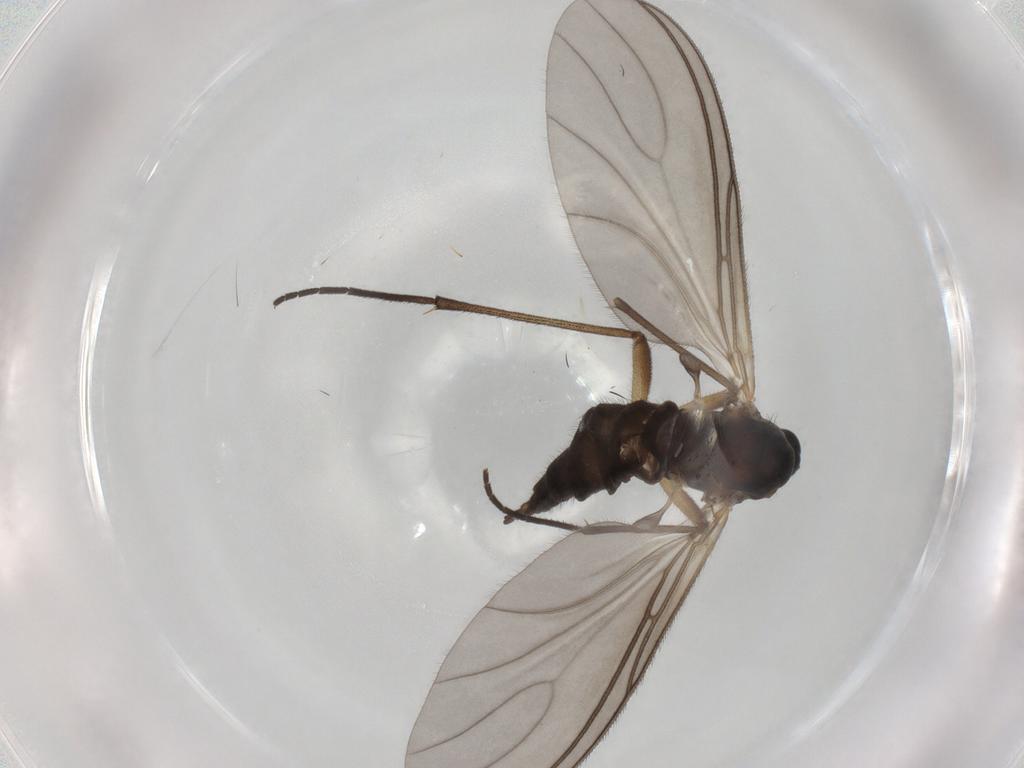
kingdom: Animalia
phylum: Arthropoda
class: Insecta
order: Diptera
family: Sciaridae
